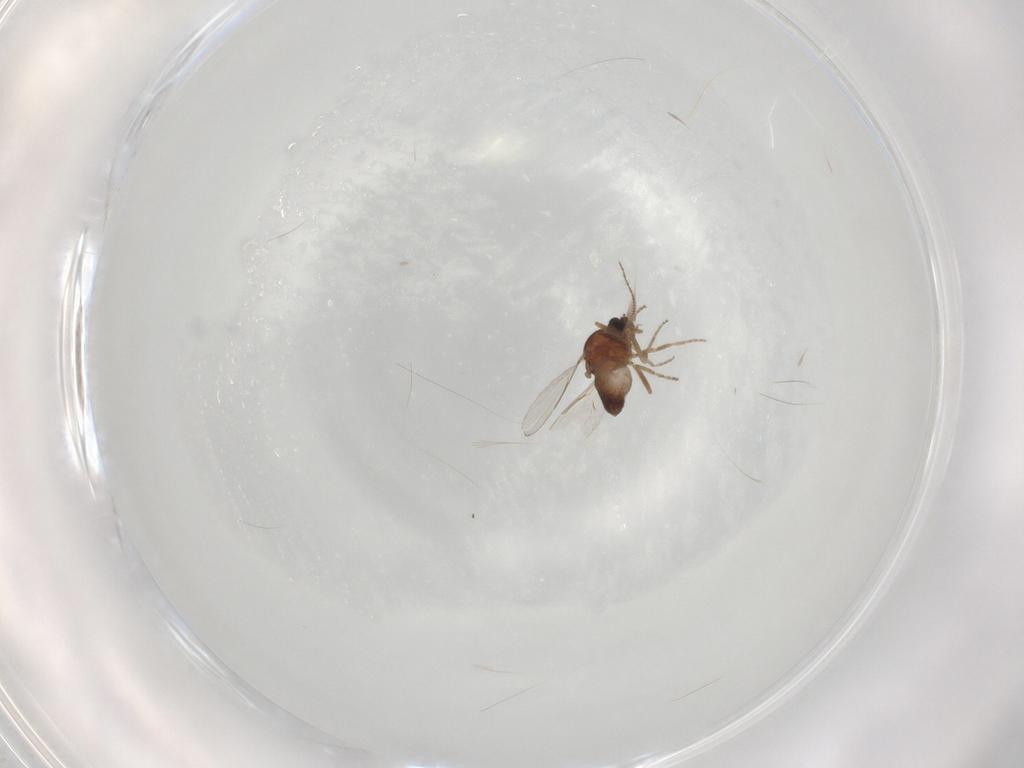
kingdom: Animalia
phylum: Arthropoda
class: Insecta
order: Diptera
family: Ceratopogonidae
